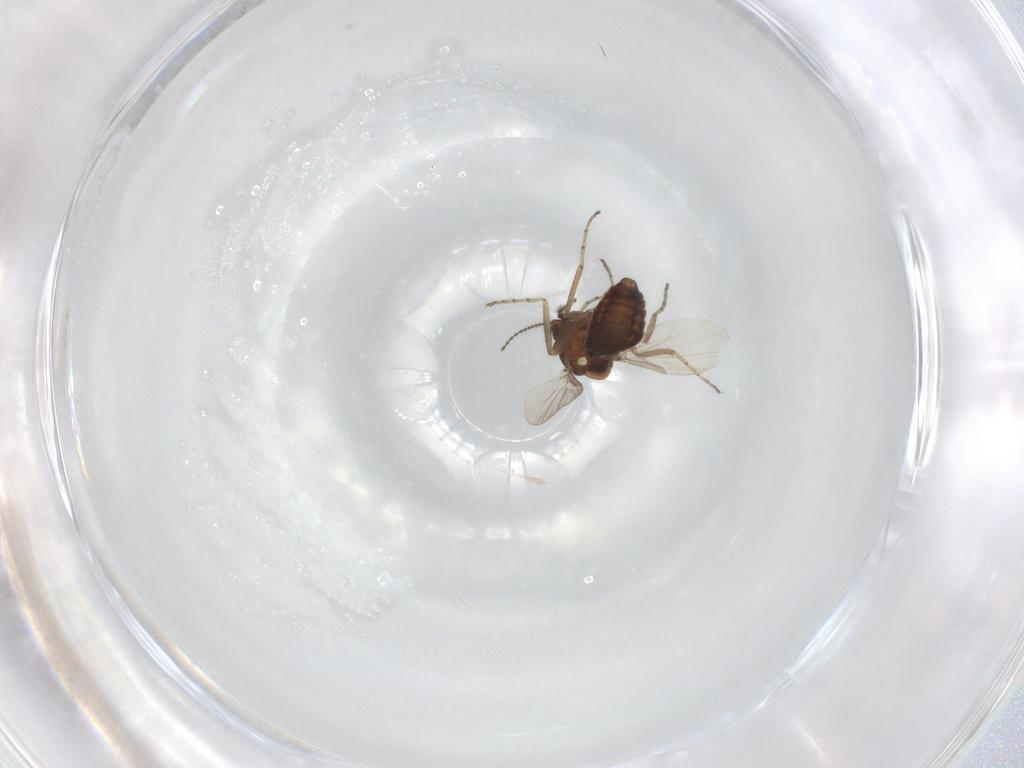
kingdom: Animalia
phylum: Arthropoda
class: Insecta
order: Diptera
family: Ceratopogonidae
